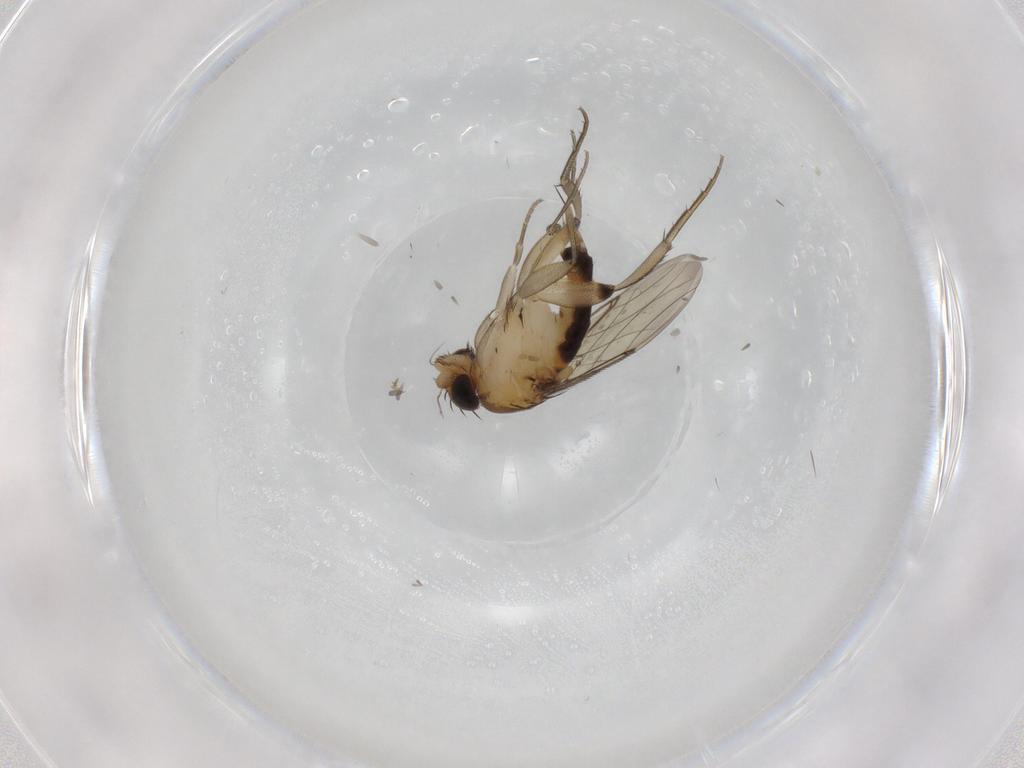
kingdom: Animalia
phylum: Arthropoda
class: Insecta
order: Diptera
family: Phoridae
